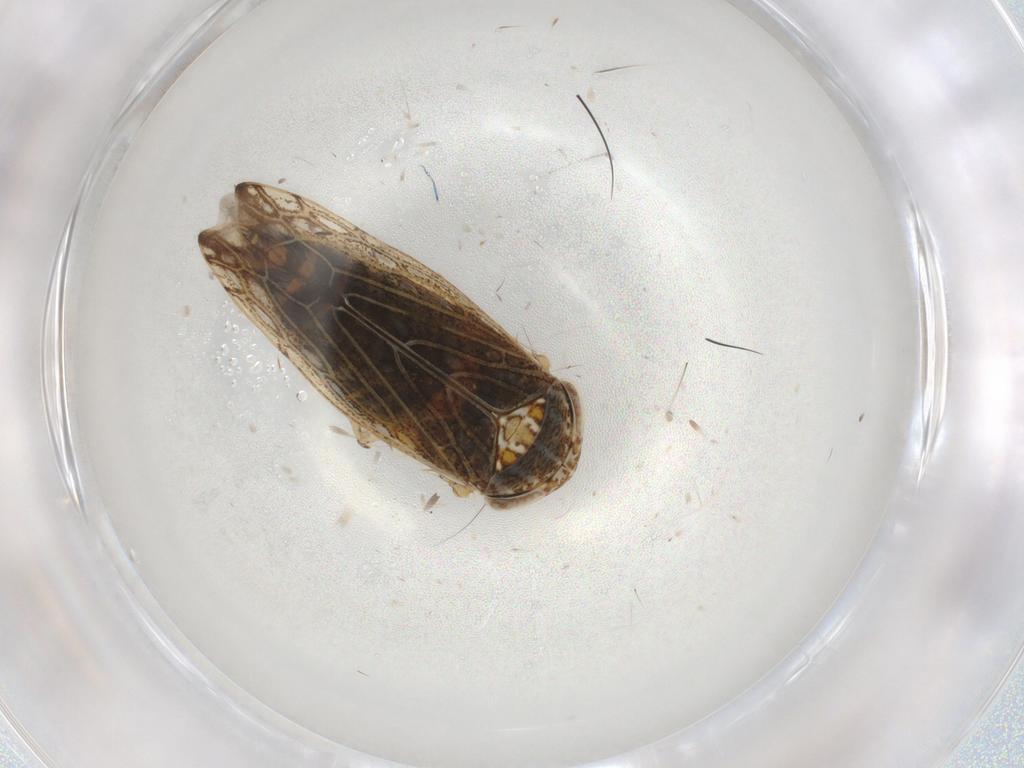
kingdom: Animalia
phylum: Arthropoda
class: Insecta
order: Hemiptera
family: Cicadellidae
